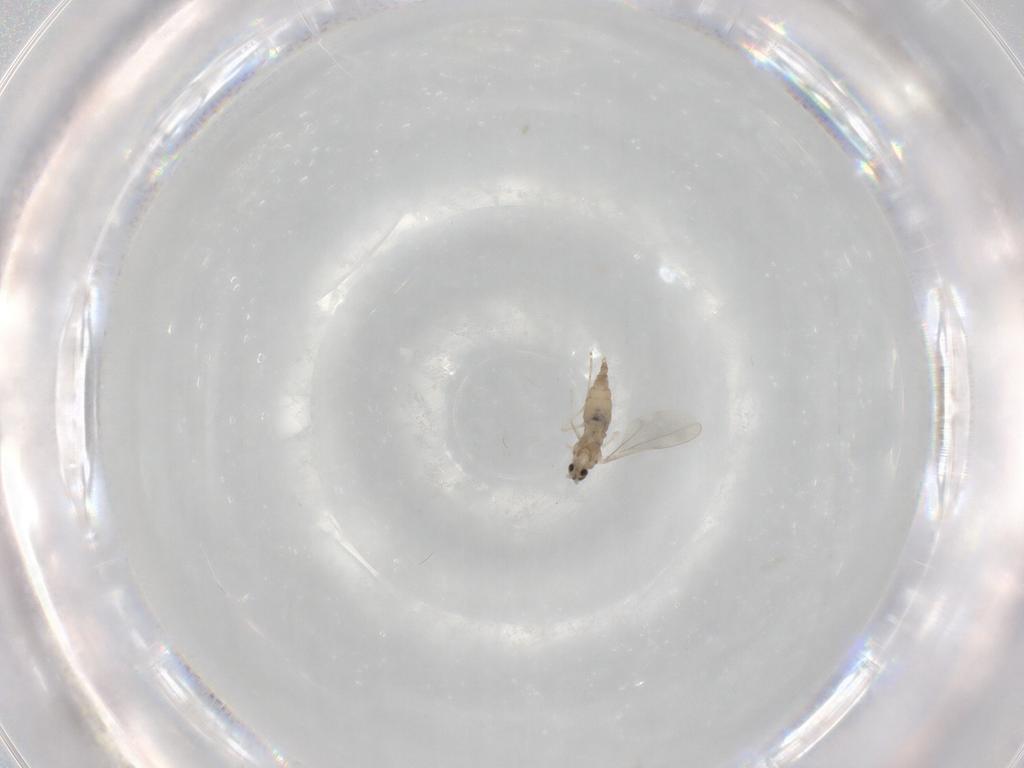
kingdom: Animalia
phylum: Arthropoda
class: Insecta
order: Diptera
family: Cecidomyiidae
